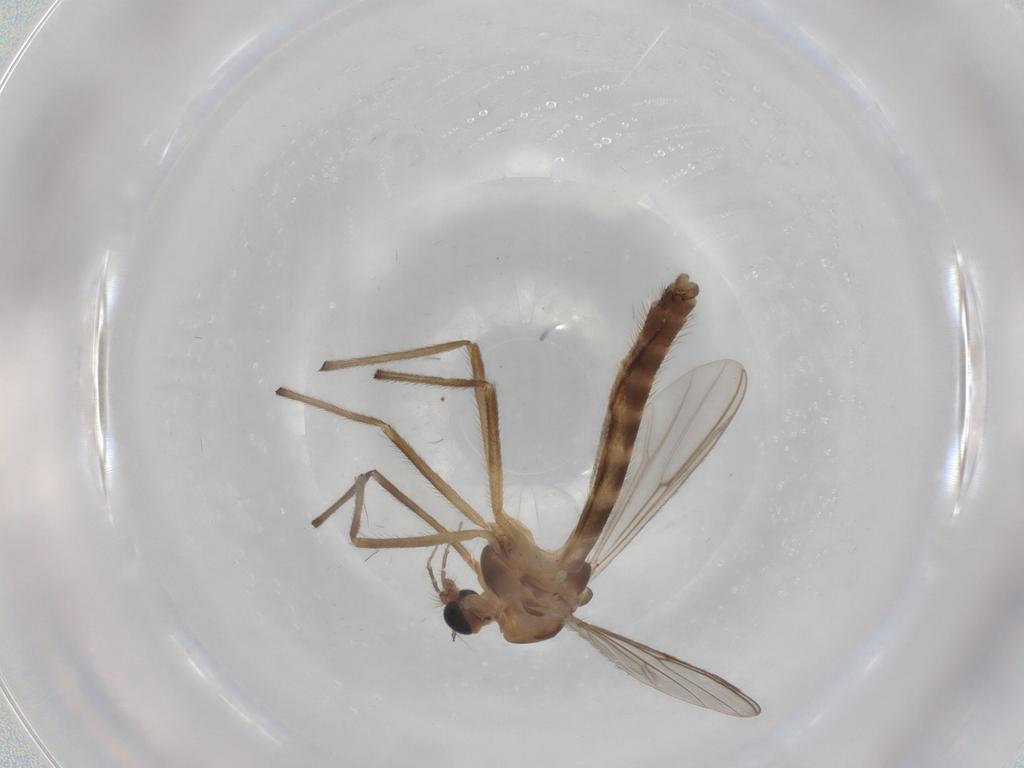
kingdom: Animalia
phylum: Arthropoda
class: Insecta
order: Diptera
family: Chironomidae
